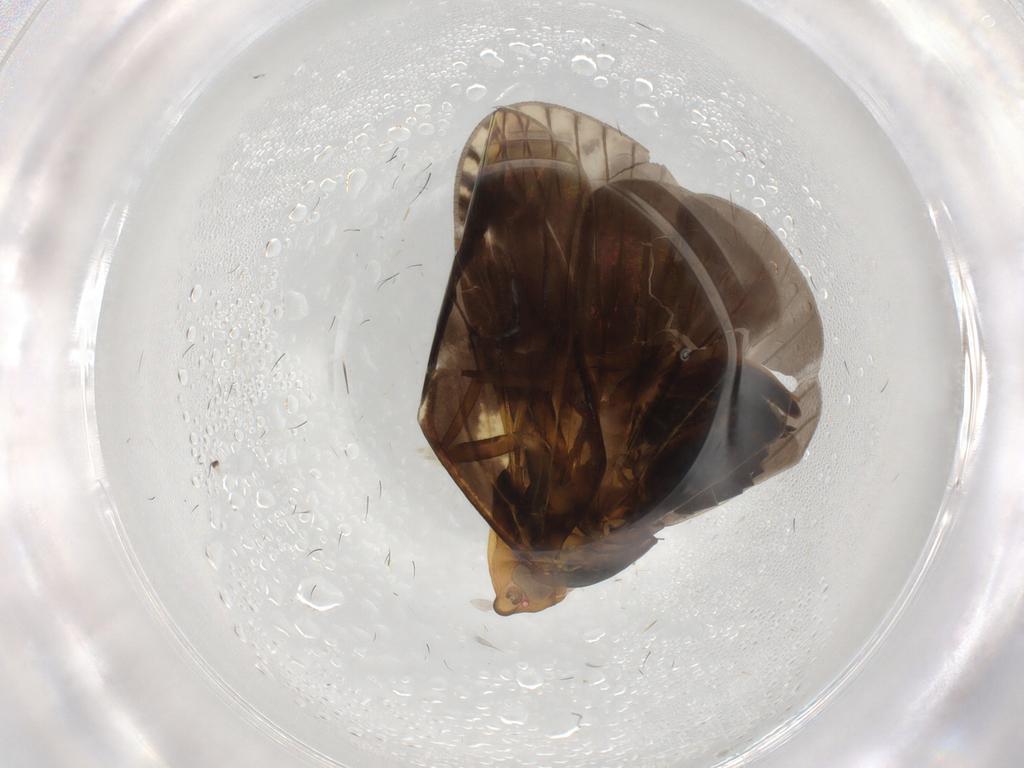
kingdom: Animalia
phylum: Arthropoda
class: Insecta
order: Hemiptera
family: Cixiidae
